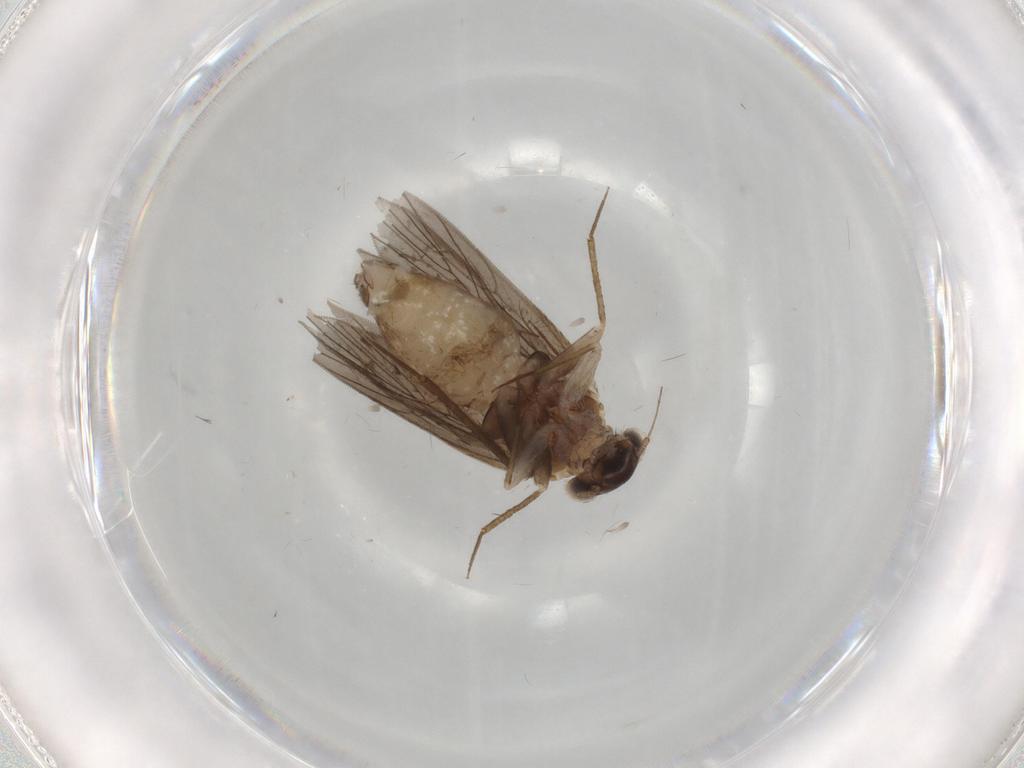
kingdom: Animalia
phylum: Arthropoda
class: Insecta
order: Psocodea
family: Lepidopsocidae
